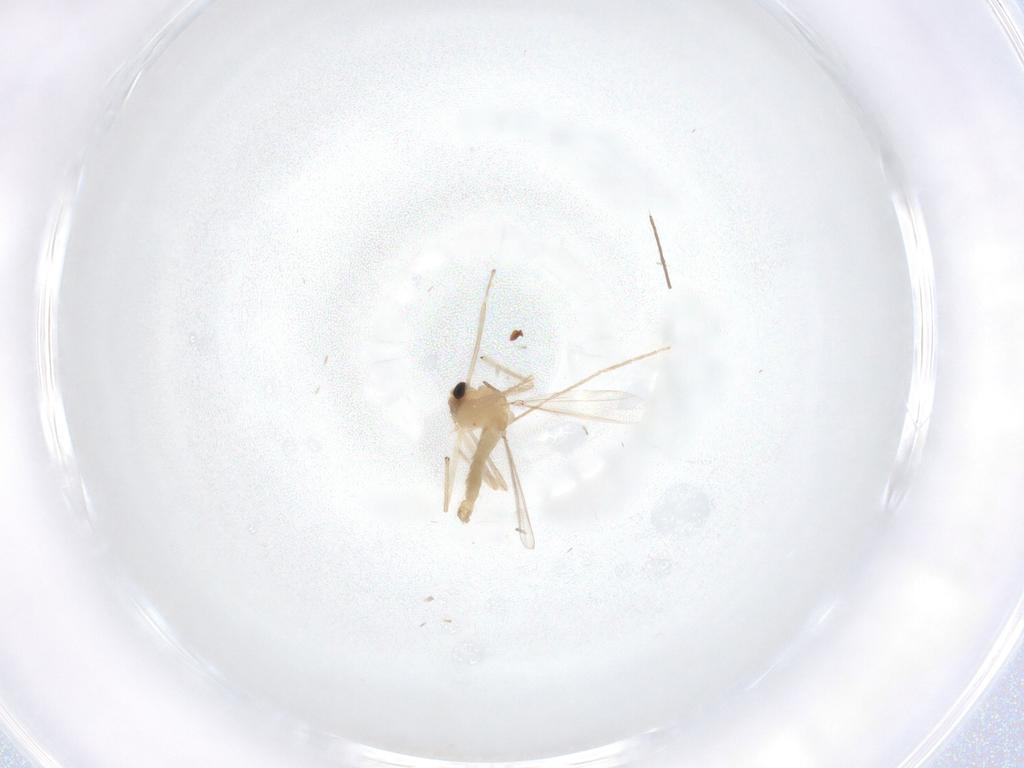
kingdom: Animalia
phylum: Arthropoda
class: Insecta
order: Diptera
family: Chironomidae
